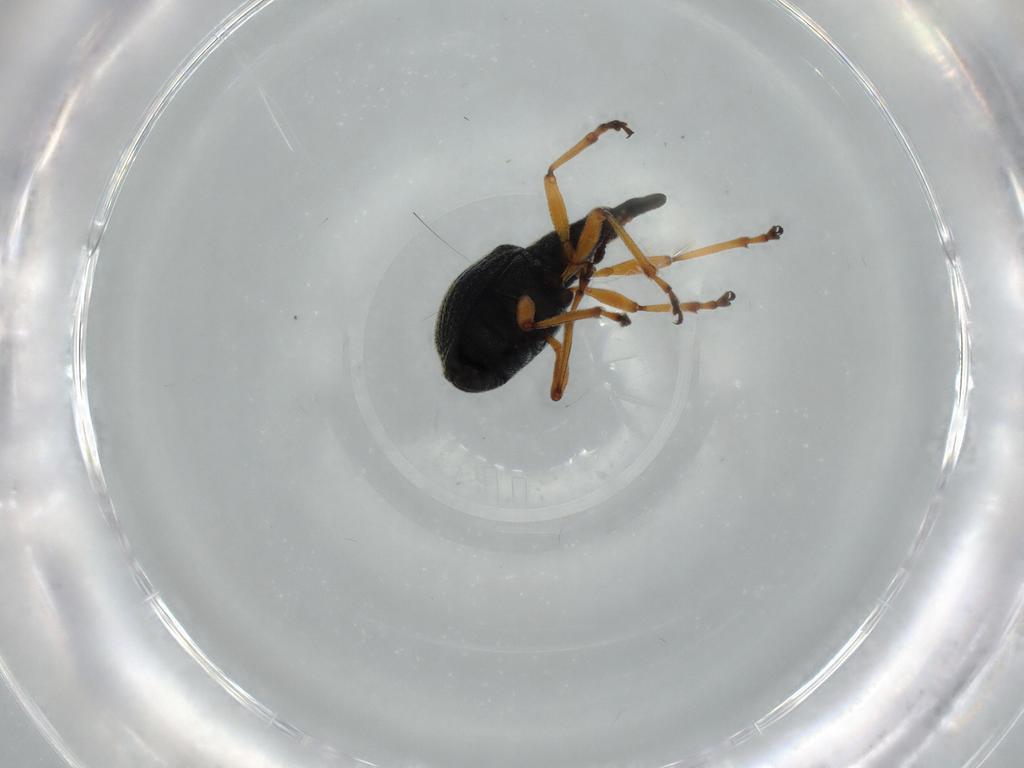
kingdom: Animalia
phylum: Arthropoda
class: Insecta
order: Coleoptera
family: Brentidae
